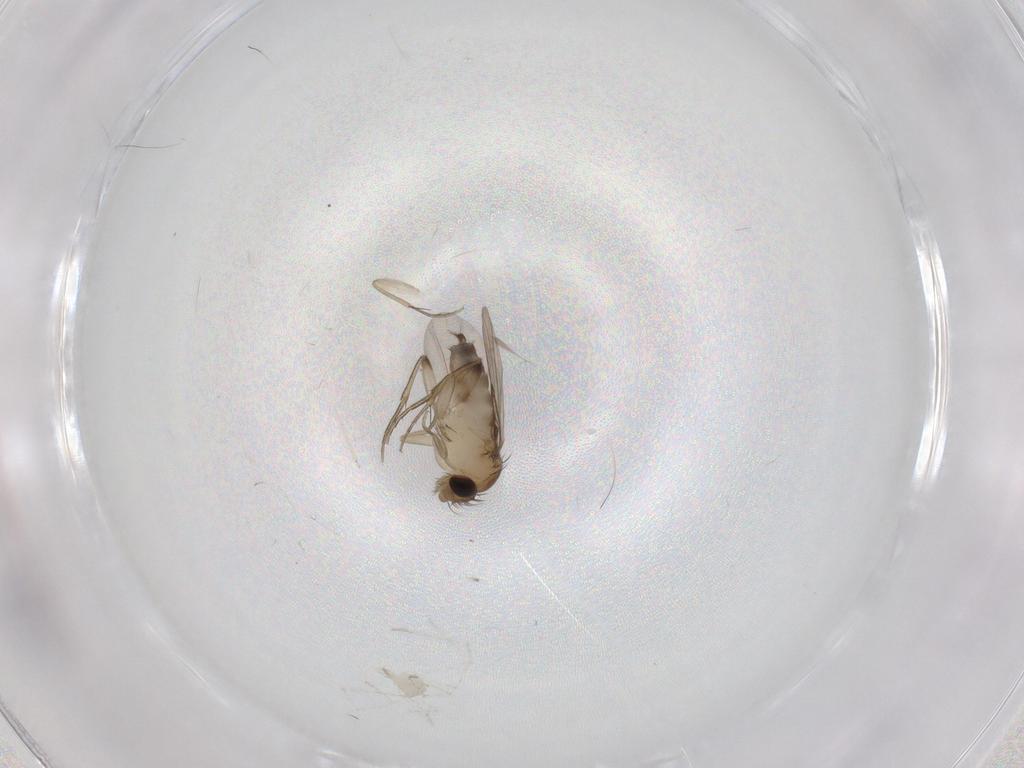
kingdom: Animalia
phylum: Arthropoda
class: Insecta
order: Diptera
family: Phoridae
